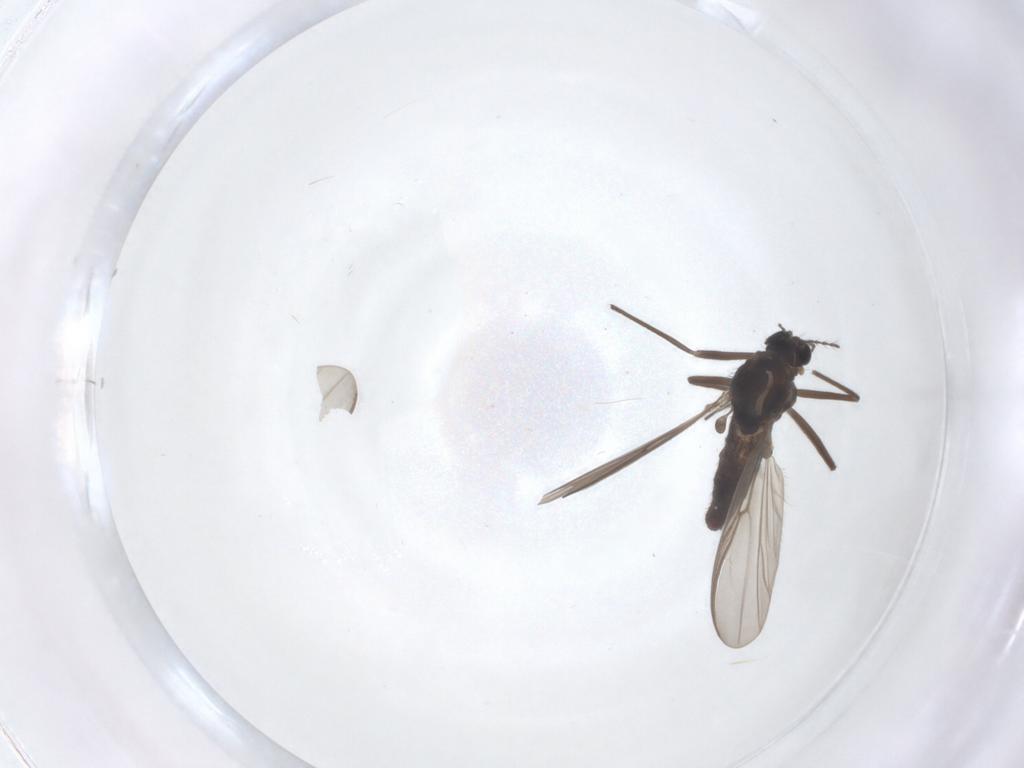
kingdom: Animalia
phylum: Arthropoda
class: Insecta
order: Diptera
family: Chironomidae
